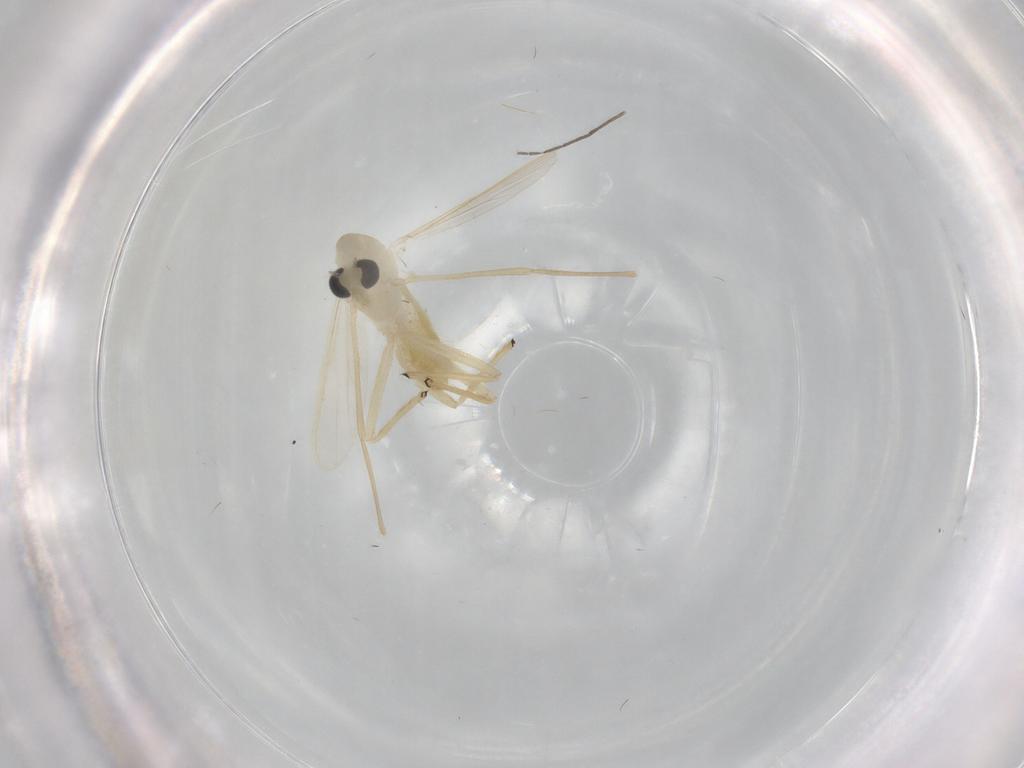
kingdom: Animalia
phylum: Arthropoda
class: Insecta
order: Diptera
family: Chironomidae
